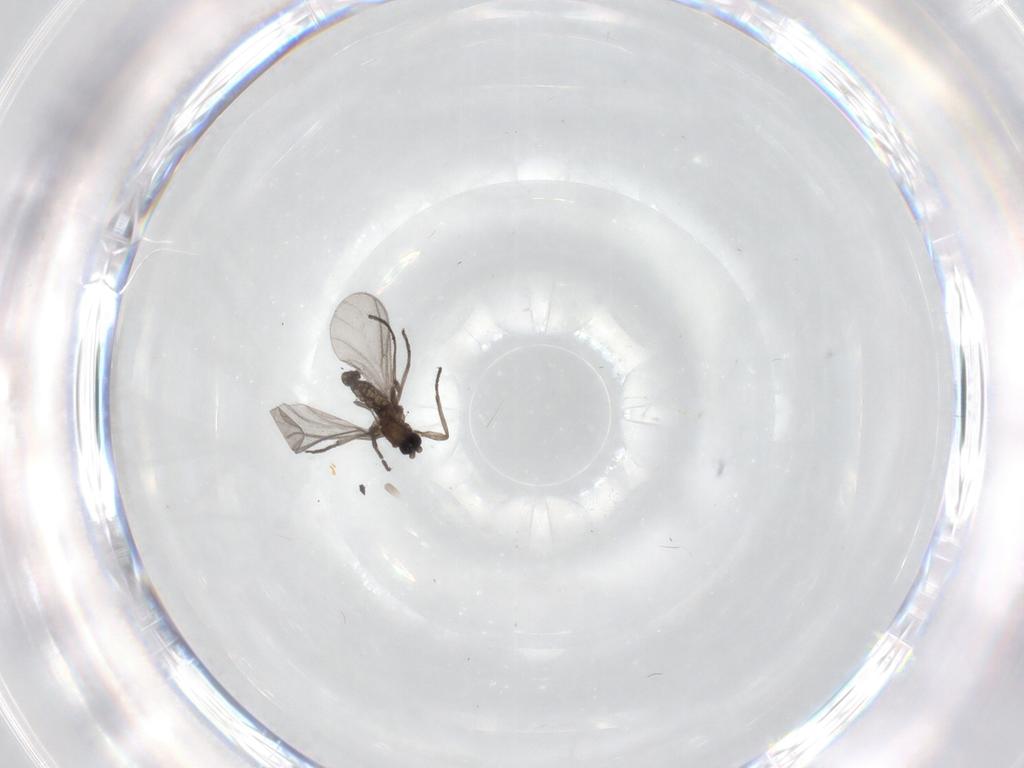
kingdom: Animalia
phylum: Arthropoda
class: Insecta
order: Diptera
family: Sciaridae
